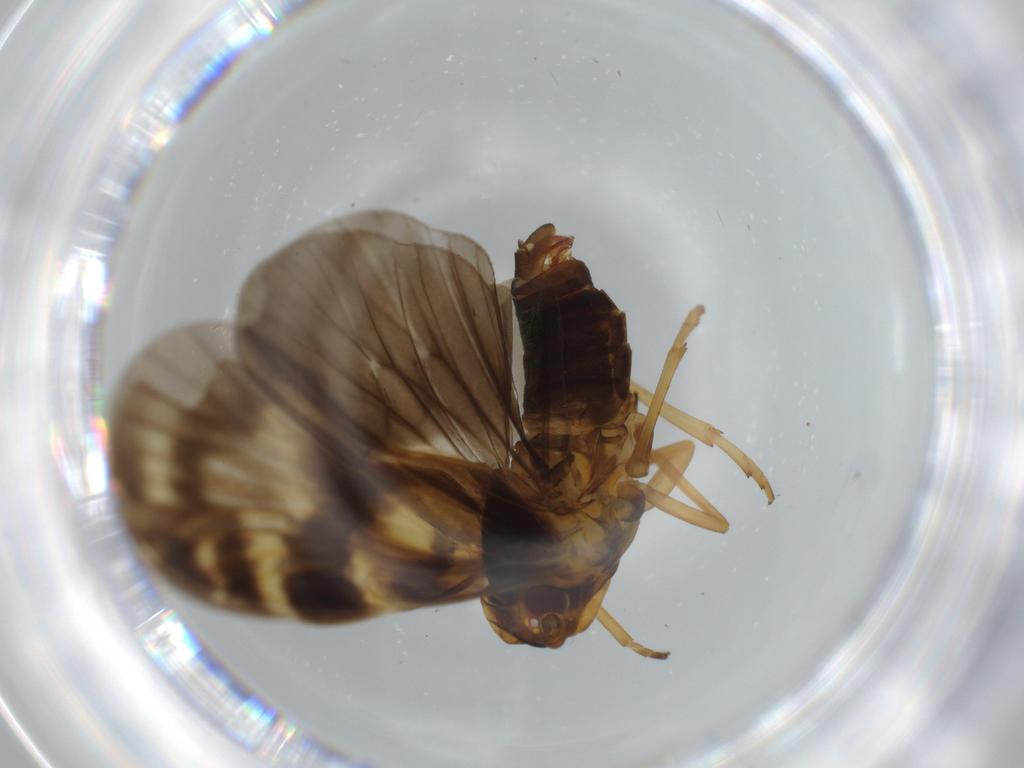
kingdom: Animalia
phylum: Arthropoda
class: Insecta
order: Hemiptera
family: Cixiidae
